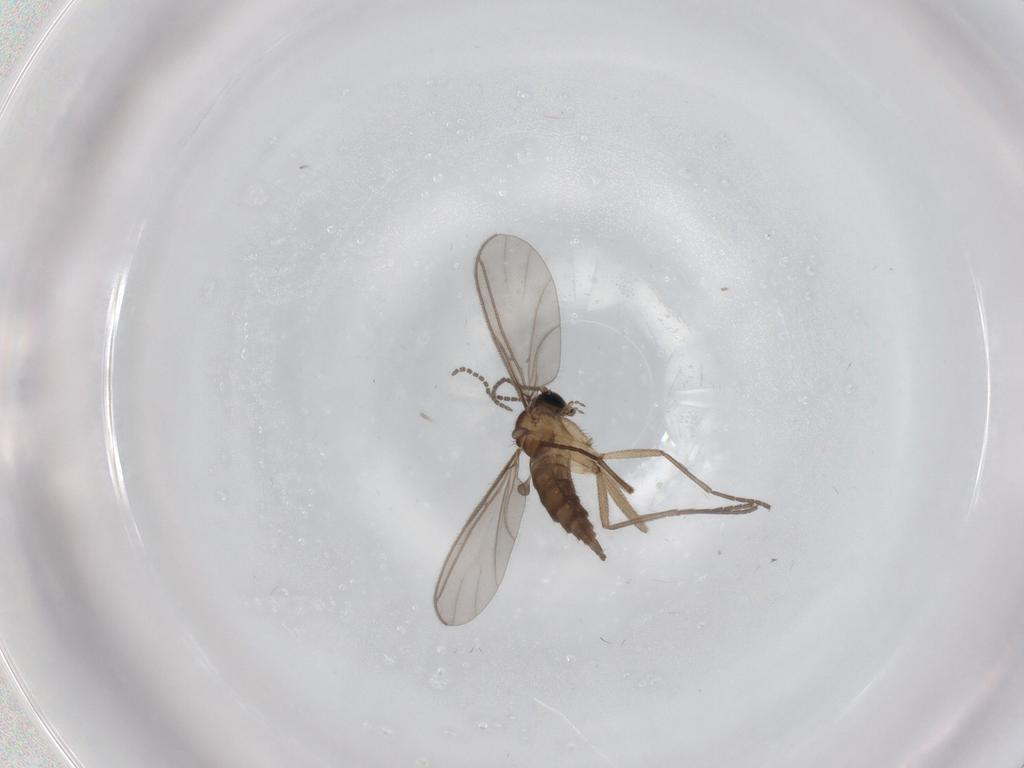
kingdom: Animalia
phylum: Arthropoda
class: Insecta
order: Diptera
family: Sciaridae
